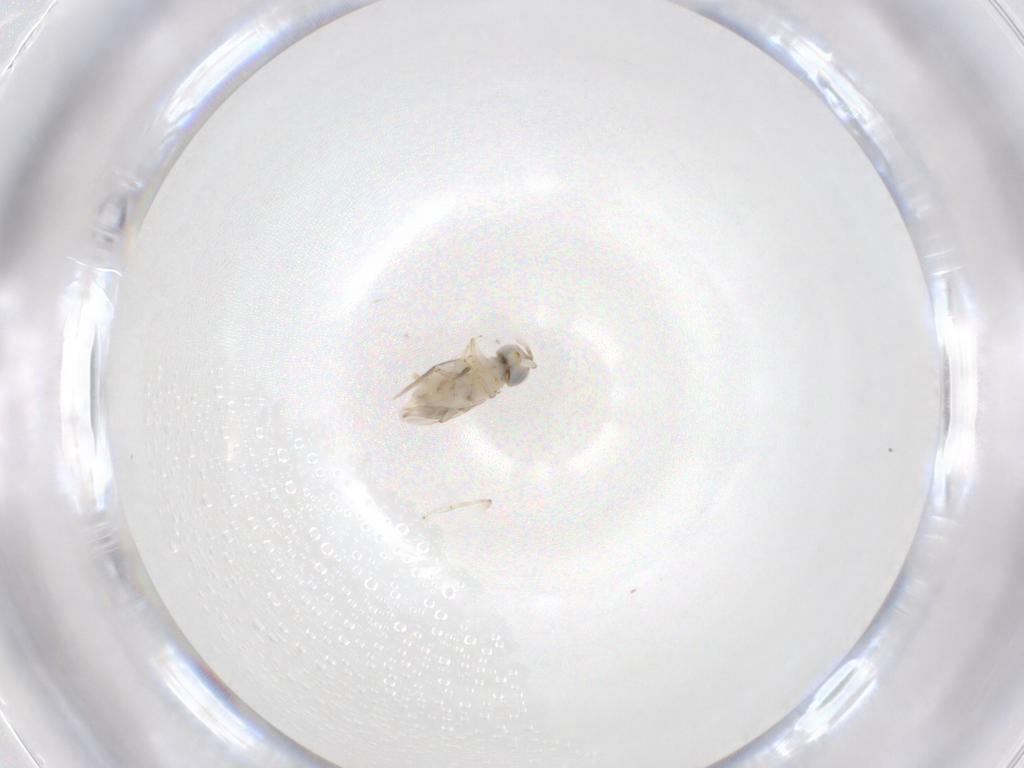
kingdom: Animalia
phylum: Arthropoda
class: Insecta
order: Hymenoptera
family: Encyrtidae
